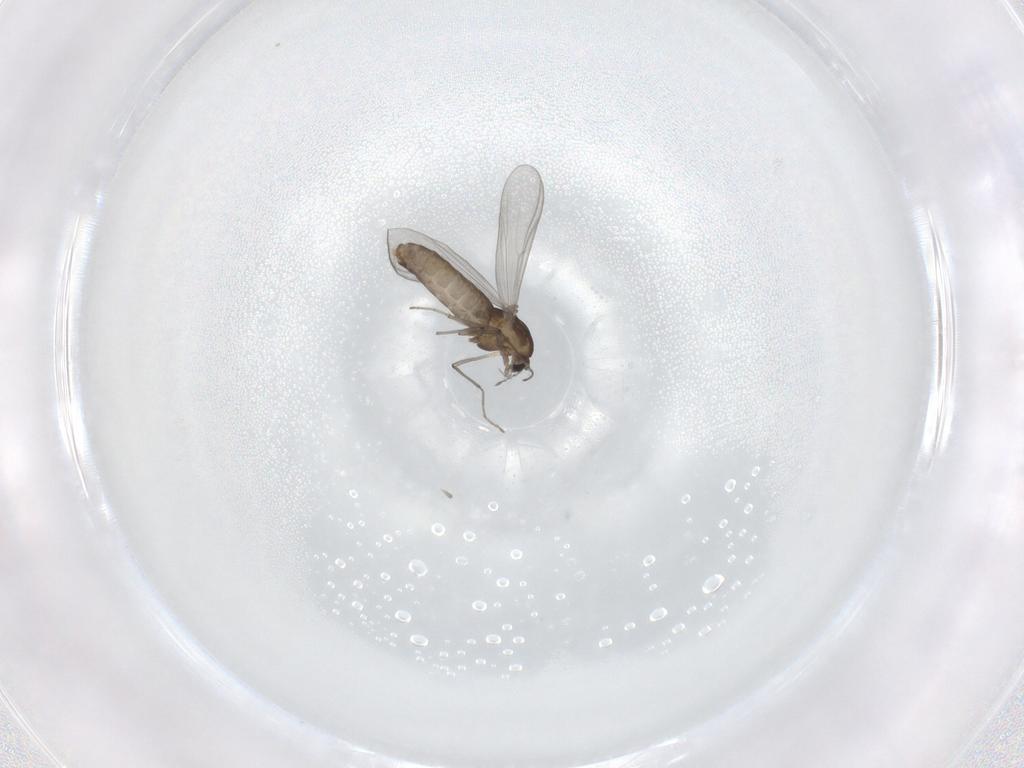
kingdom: Animalia
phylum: Arthropoda
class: Insecta
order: Diptera
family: Chironomidae
